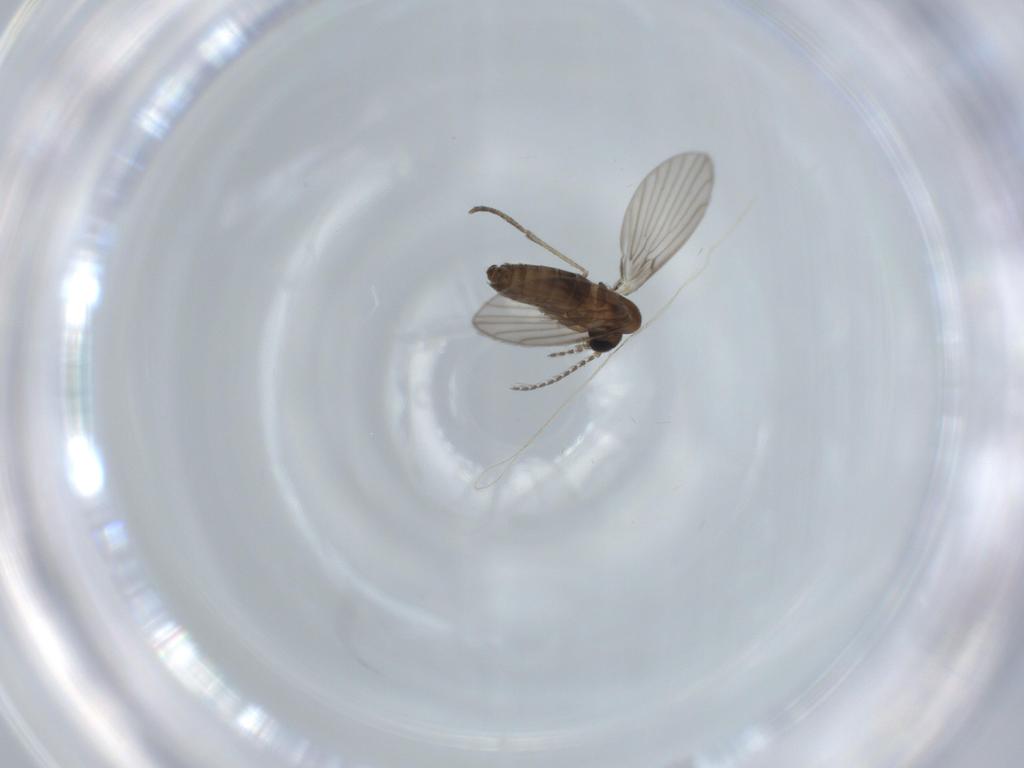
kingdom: Animalia
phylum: Arthropoda
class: Insecta
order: Diptera
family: Psychodidae
